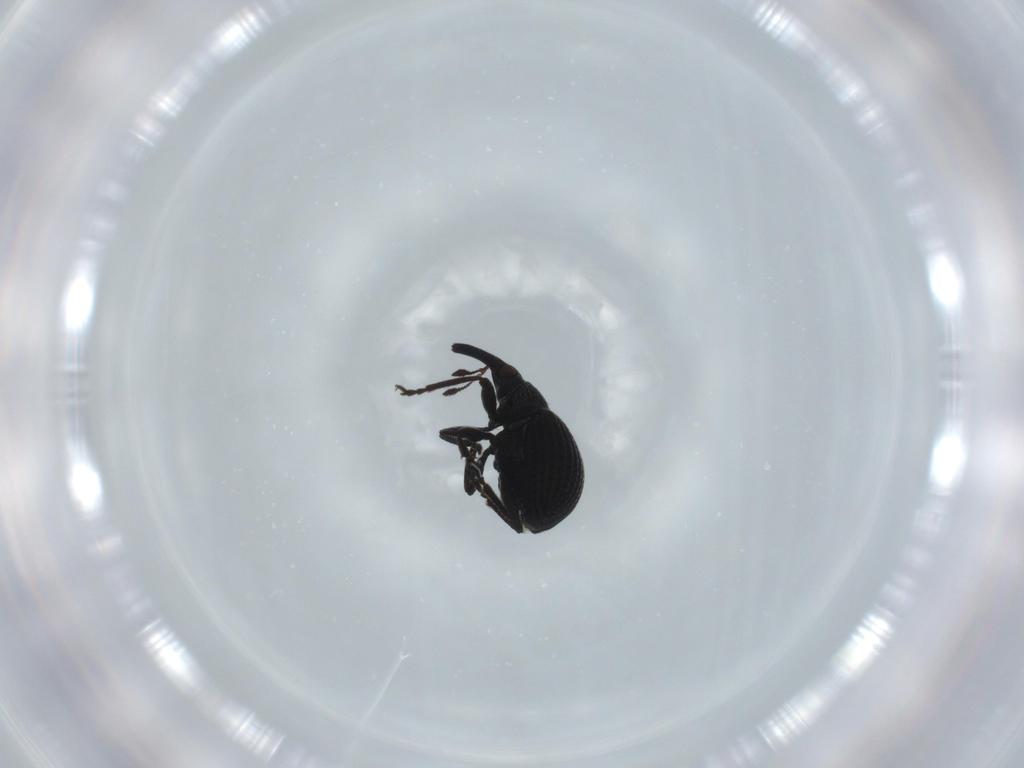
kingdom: Animalia
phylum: Arthropoda
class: Insecta
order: Coleoptera
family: Brentidae
